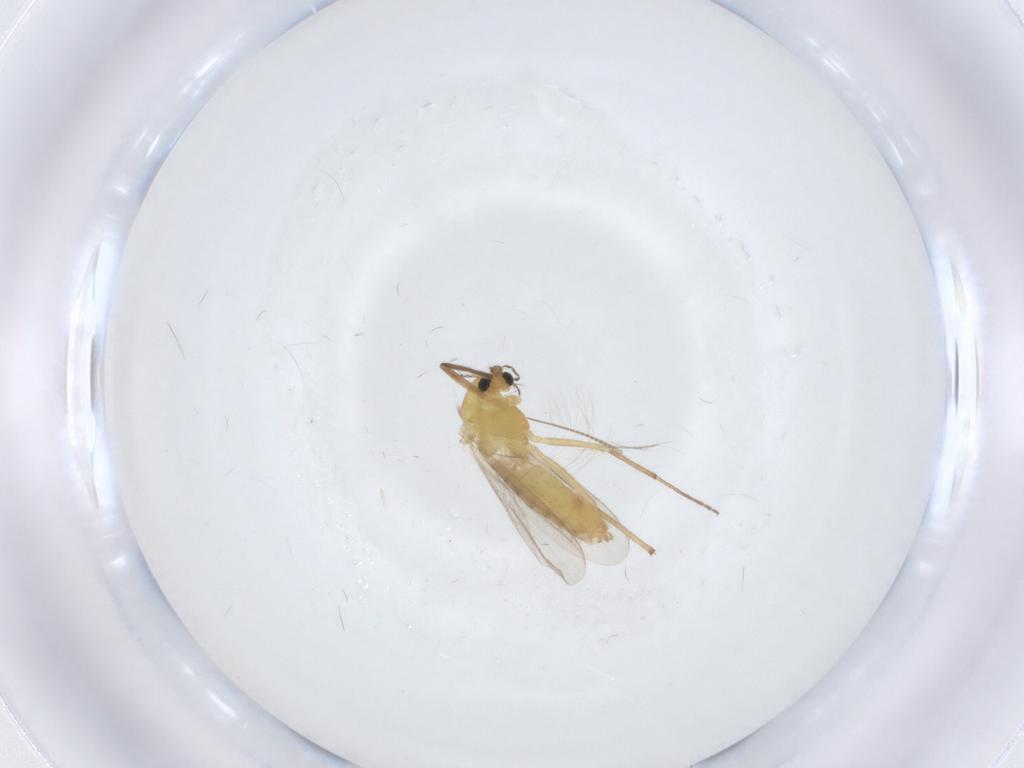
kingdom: Animalia
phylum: Arthropoda
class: Insecta
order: Diptera
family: Chironomidae
